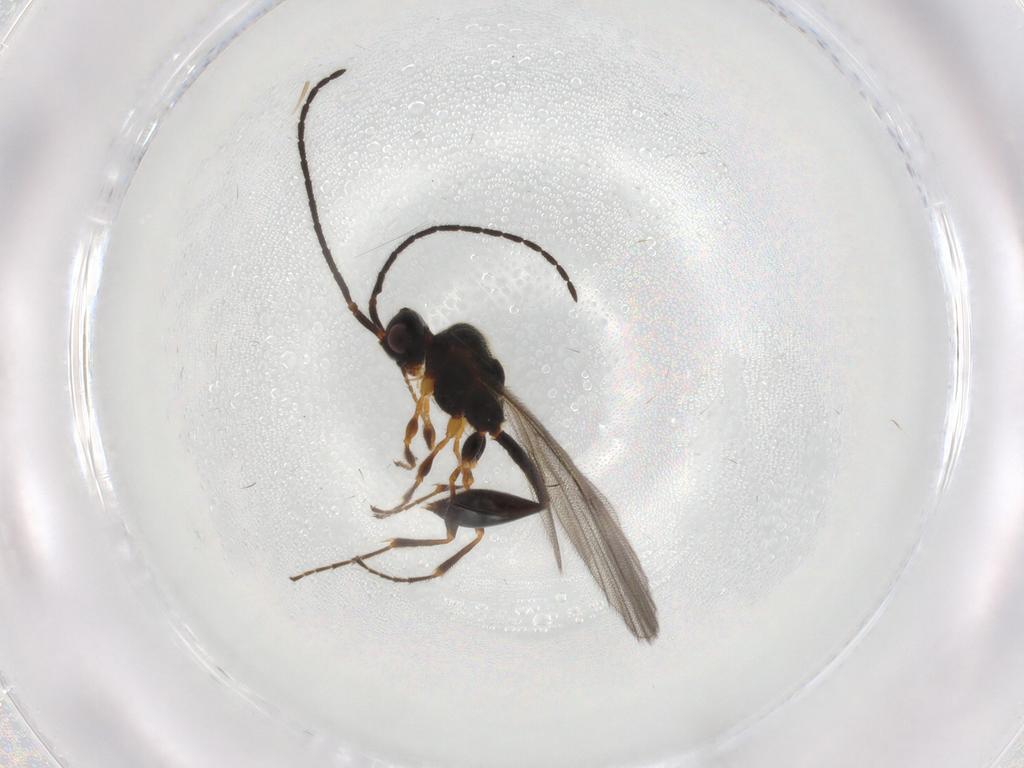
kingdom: Animalia
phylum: Arthropoda
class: Insecta
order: Hymenoptera
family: Diapriidae
